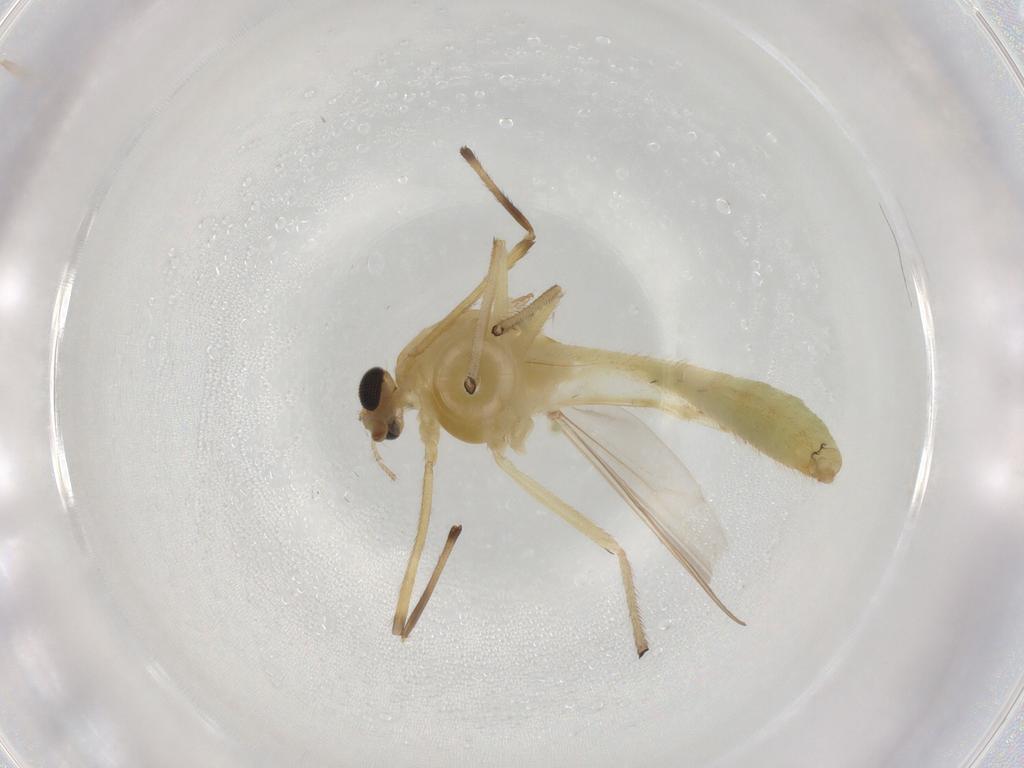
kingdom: Animalia
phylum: Arthropoda
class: Insecta
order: Diptera
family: Chironomidae
